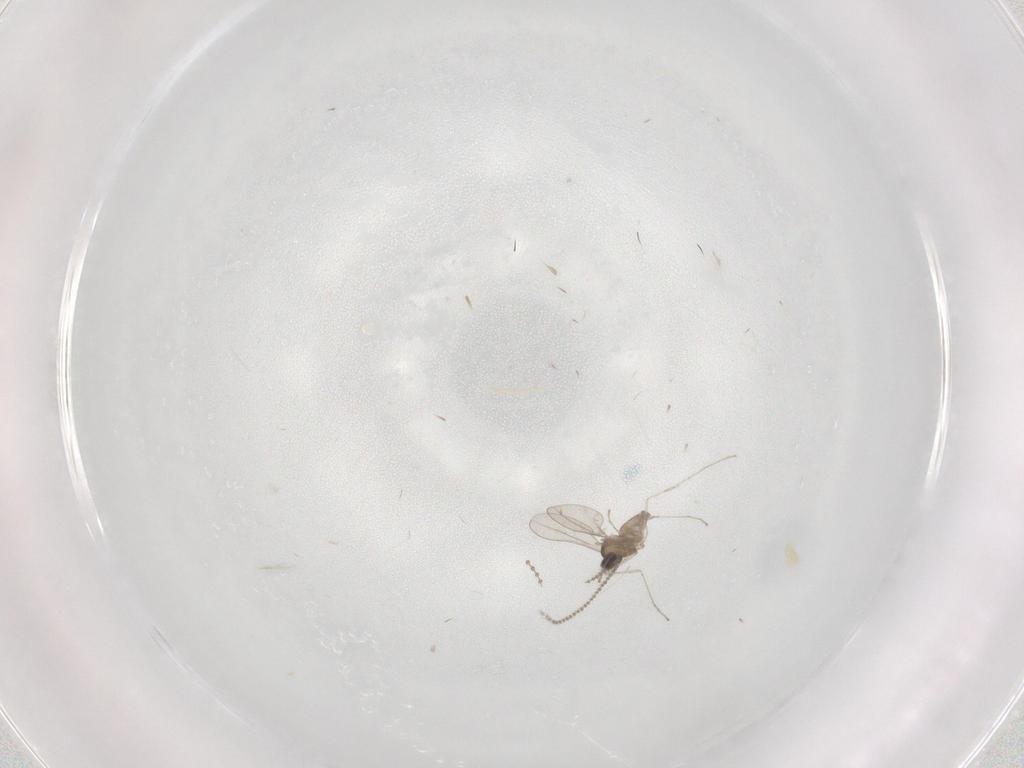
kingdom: Animalia
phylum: Arthropoda
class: Insecta
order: Diptera
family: Cecidomyiidae
